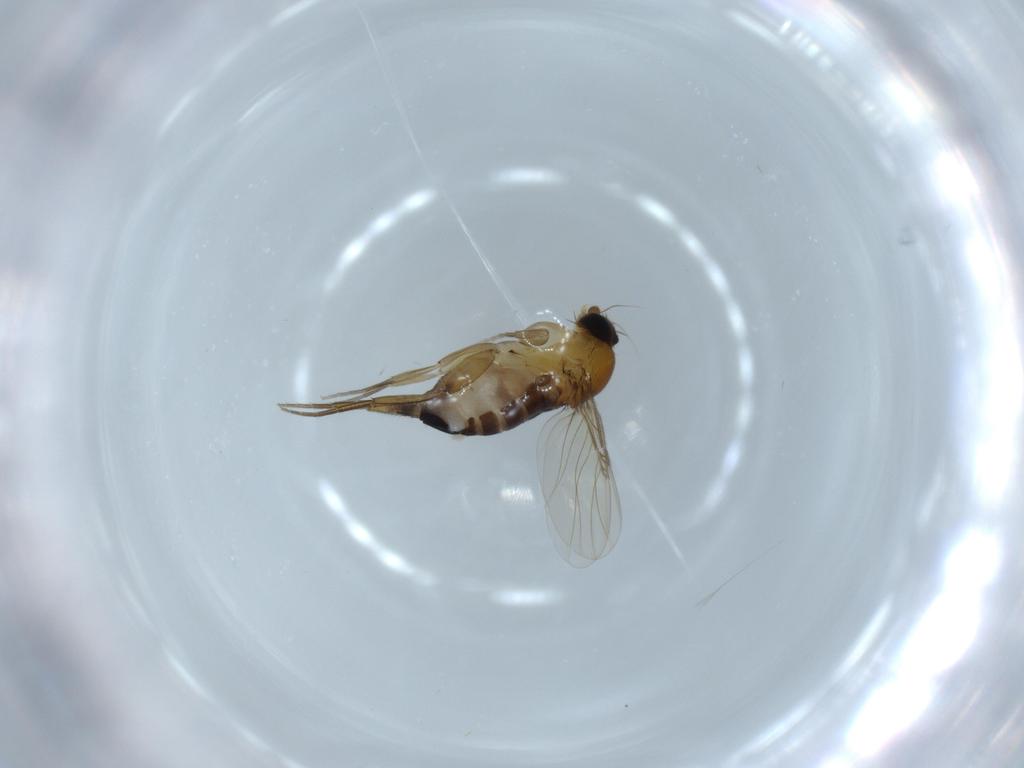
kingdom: Animalia
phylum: Arthropoda
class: Insecta
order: Diptera
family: Phoridae
